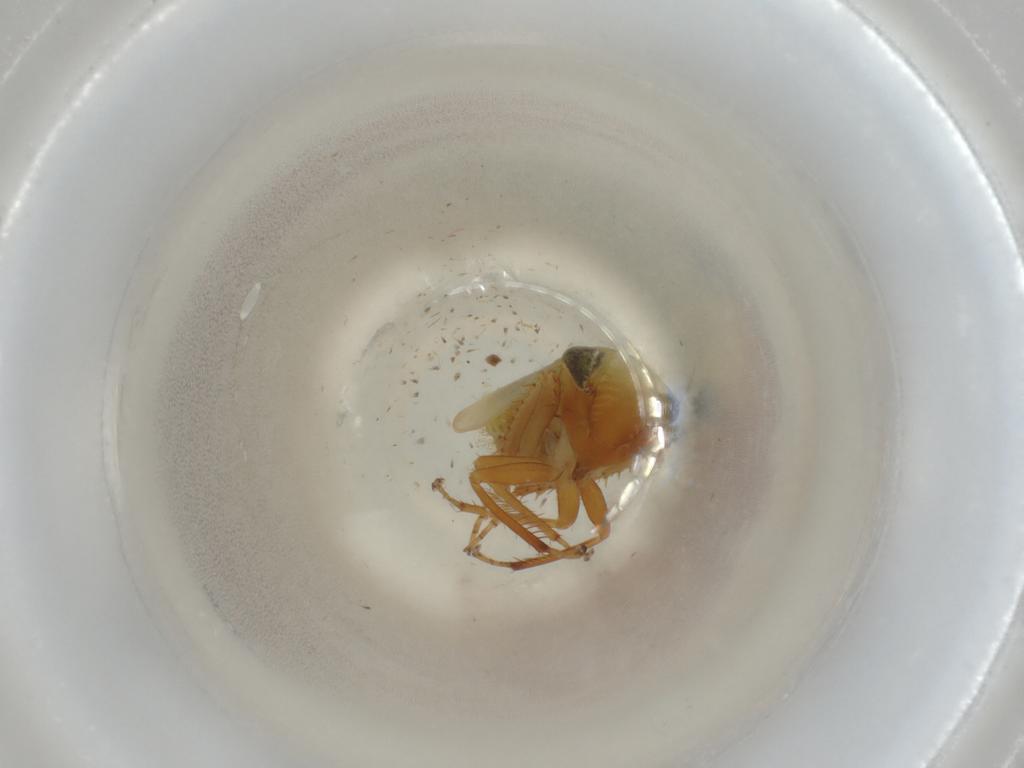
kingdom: Animalia
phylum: Arthropoda
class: Insecta
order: Hemiptera
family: Cicadellidae
